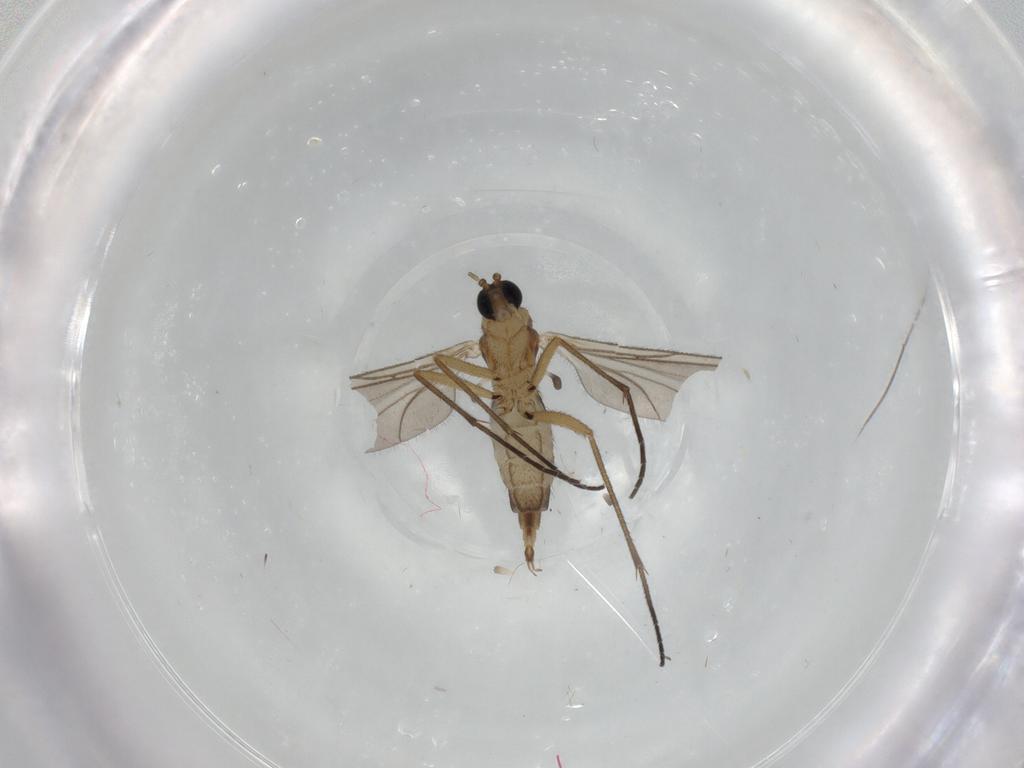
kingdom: Animalia
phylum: Arthropoda
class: Insecta
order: Diptera
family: Sciaridae
